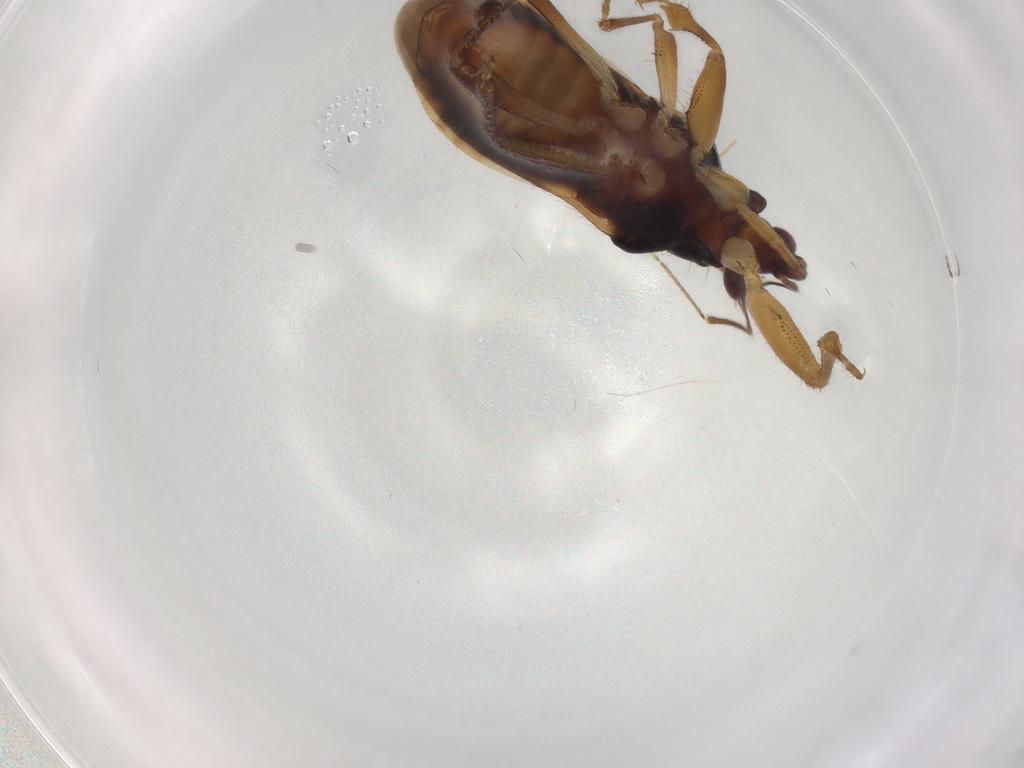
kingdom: Animalia
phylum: Arthropoda
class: Insecta
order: Hemiptera
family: Nabidae
